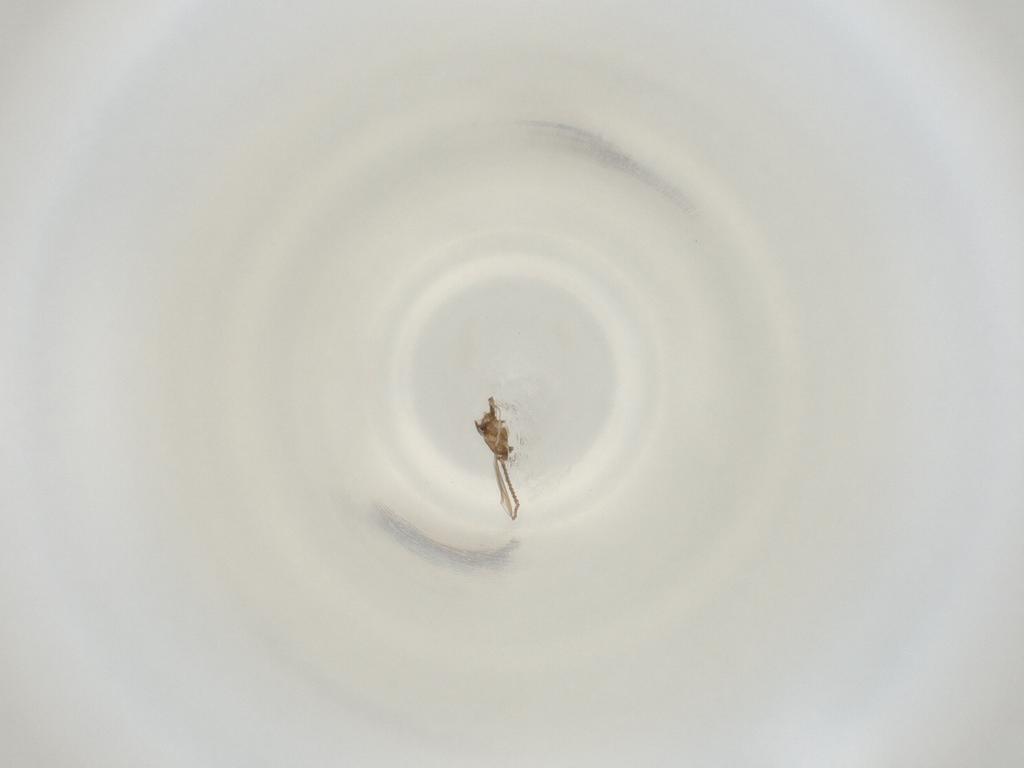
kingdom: Animalia
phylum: Arthropoda
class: Insecta
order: Diptera
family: Cecidomyiidae
